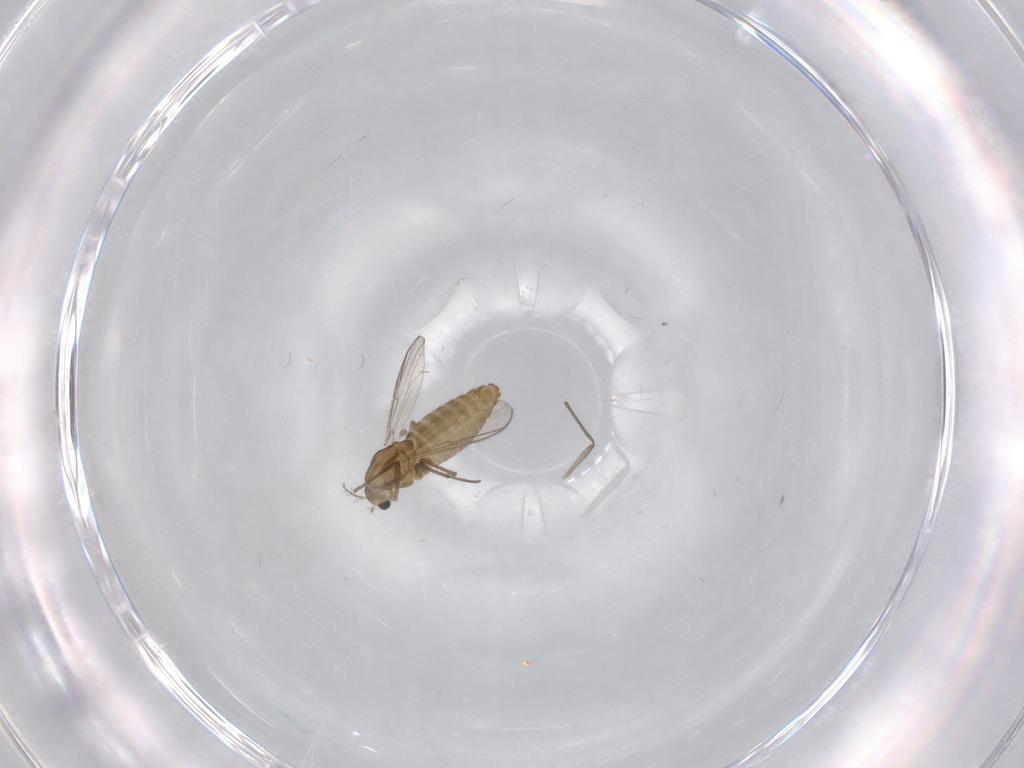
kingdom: Animalia
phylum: Arthropoda
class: Insecta
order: Diptera
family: Chironomidae
